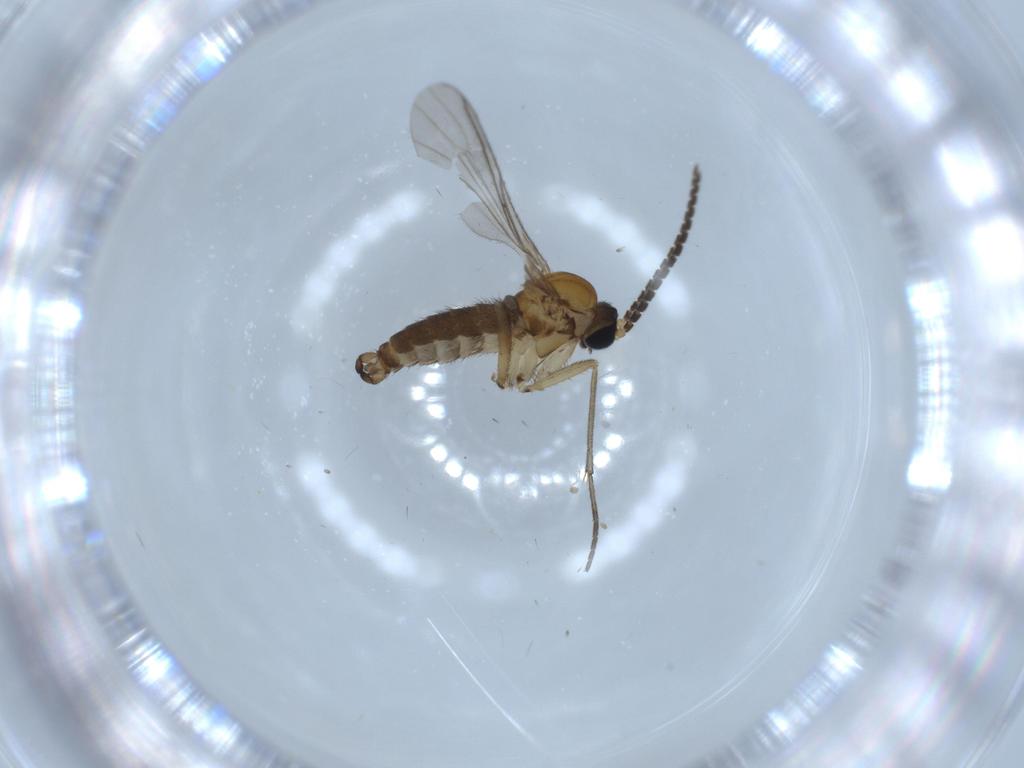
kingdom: Animalia
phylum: Arthropoda
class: Insecta
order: Diptera
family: Sciaridae
